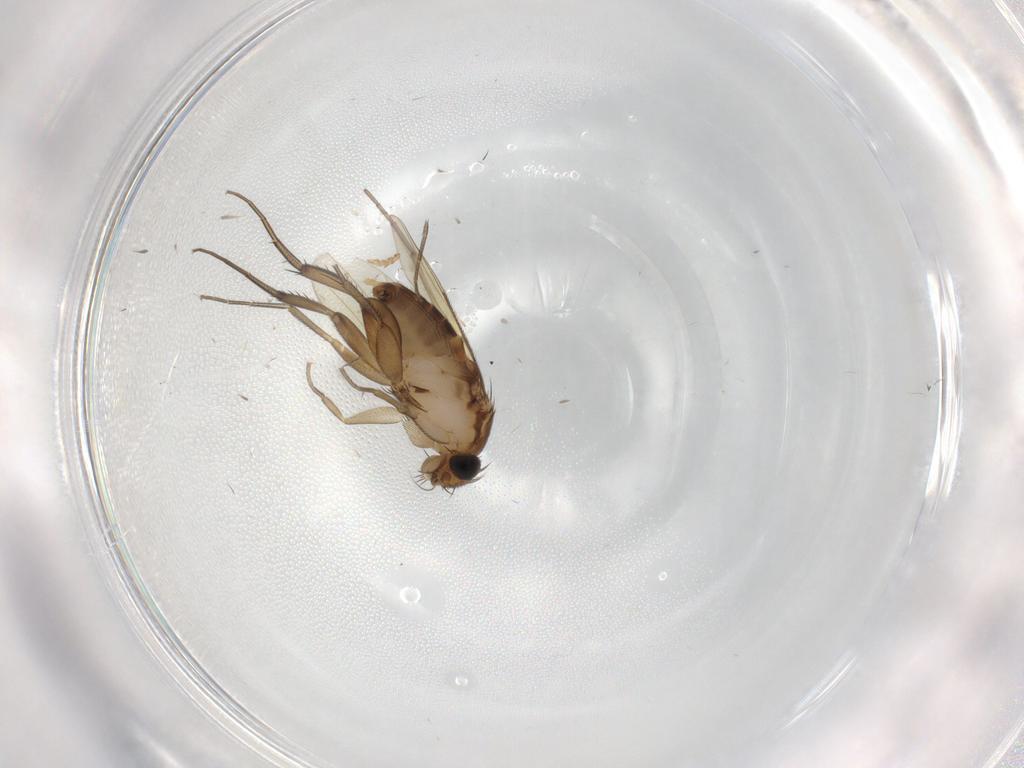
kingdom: Animalia
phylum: Arthropoda
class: Insecta
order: Diptera
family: Phoridae
